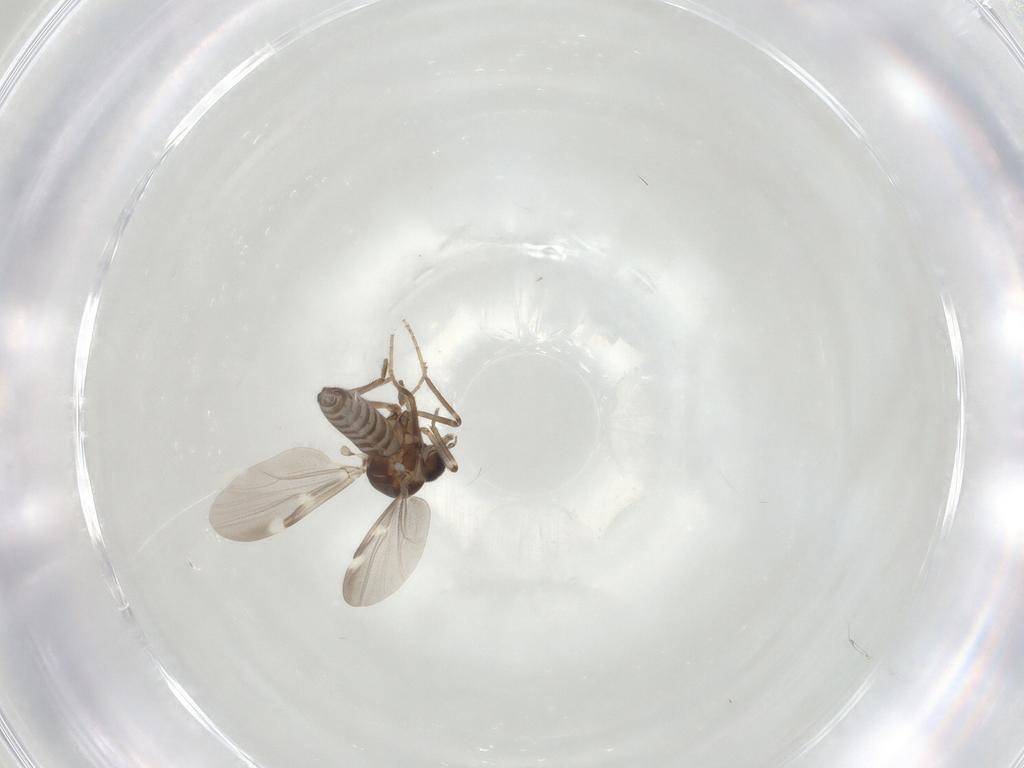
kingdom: Animalia
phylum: Arthropoda
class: Insecta
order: Diptera
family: Ceratopogonidae
